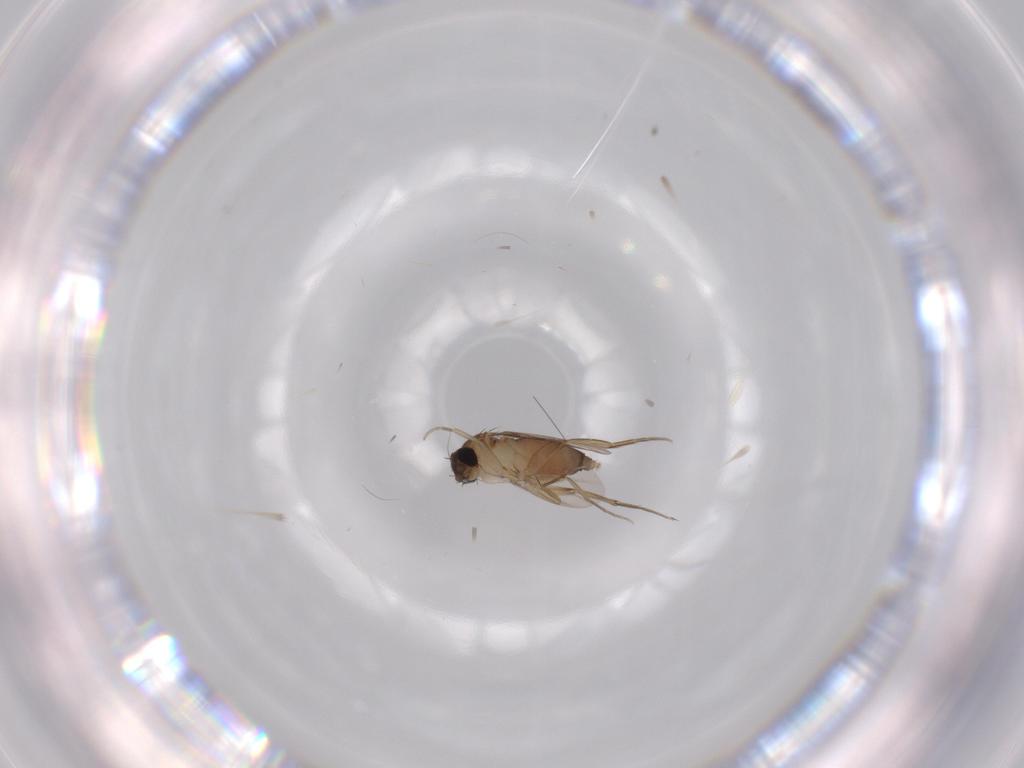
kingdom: Animalia
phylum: Arthropoda
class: Insecta
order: Diptera
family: Phoridae
